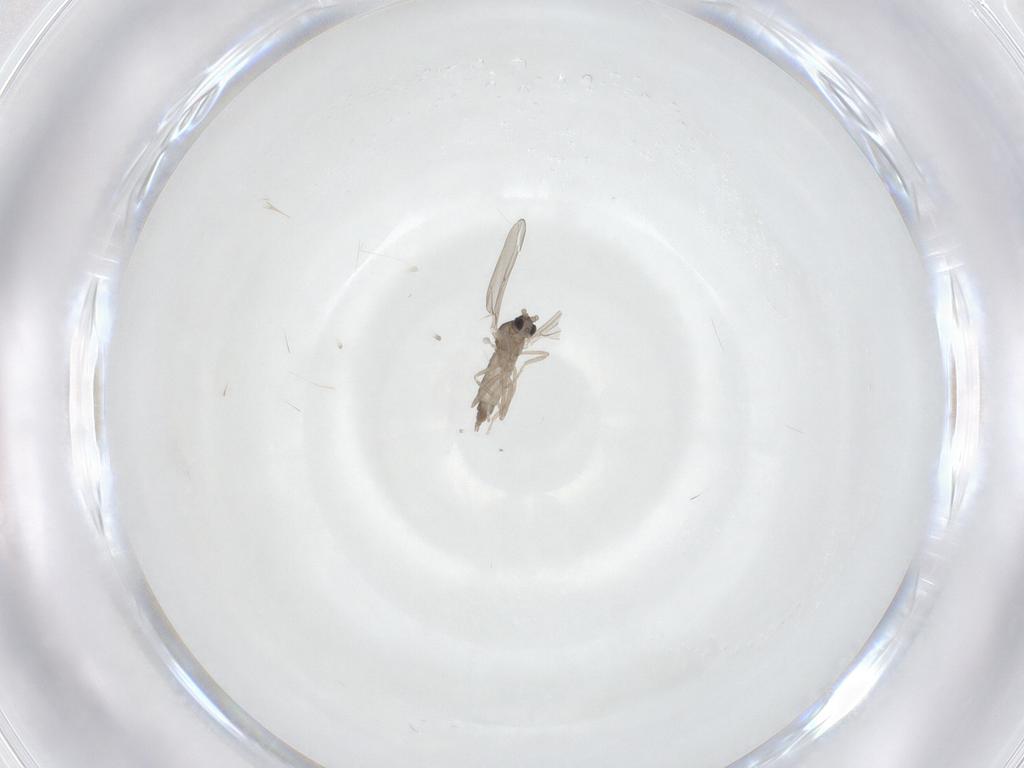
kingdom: Animalia
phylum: Arthropoda
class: Insecta
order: Diptera
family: Cecidomyiidae
